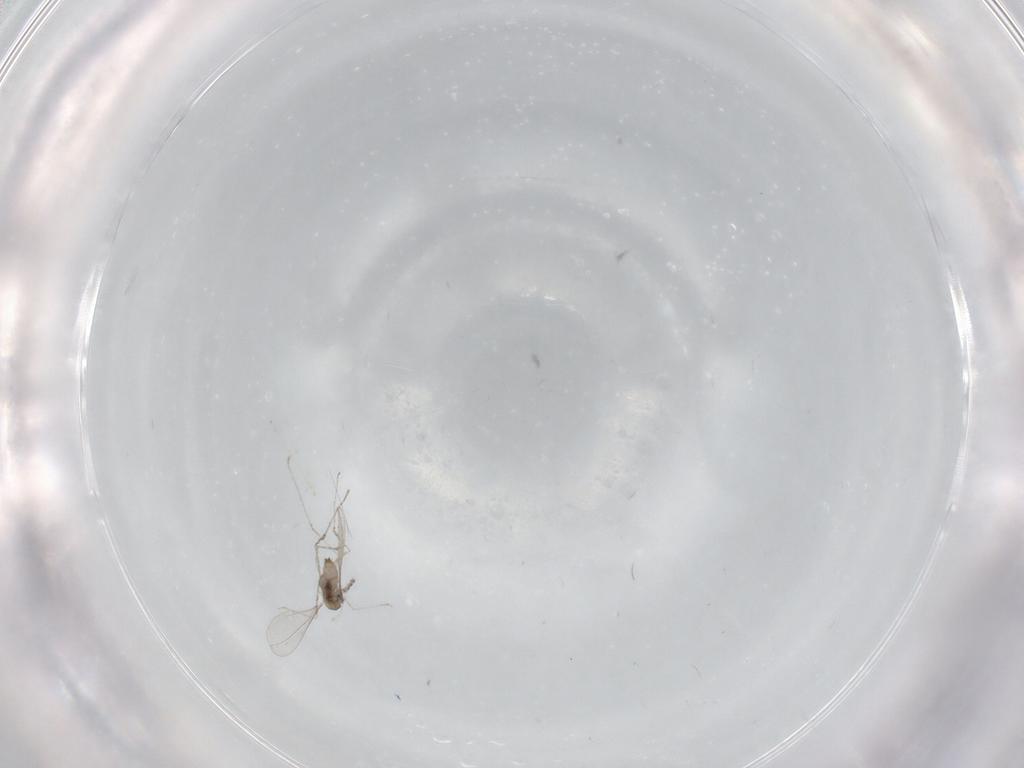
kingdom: Animalia
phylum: Arthropoda
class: Insecta
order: Diptera
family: Cecidomyiidae
